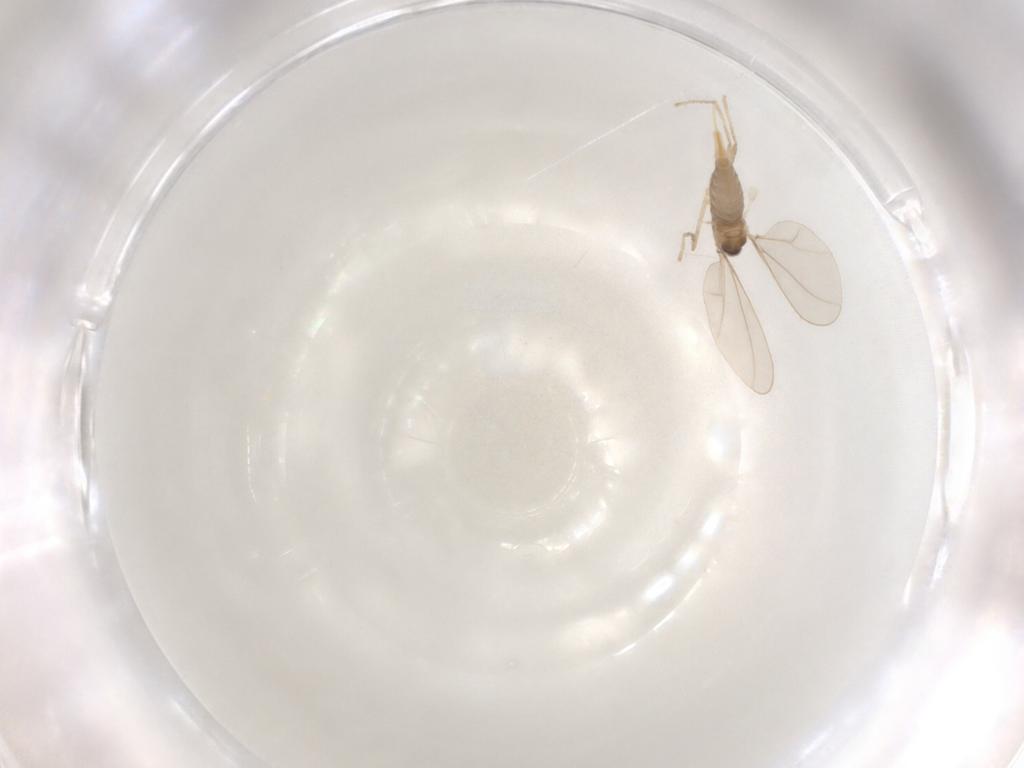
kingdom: Animalia
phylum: Arthropoda
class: Insecta
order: Diptera
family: Cecidomyiidae
